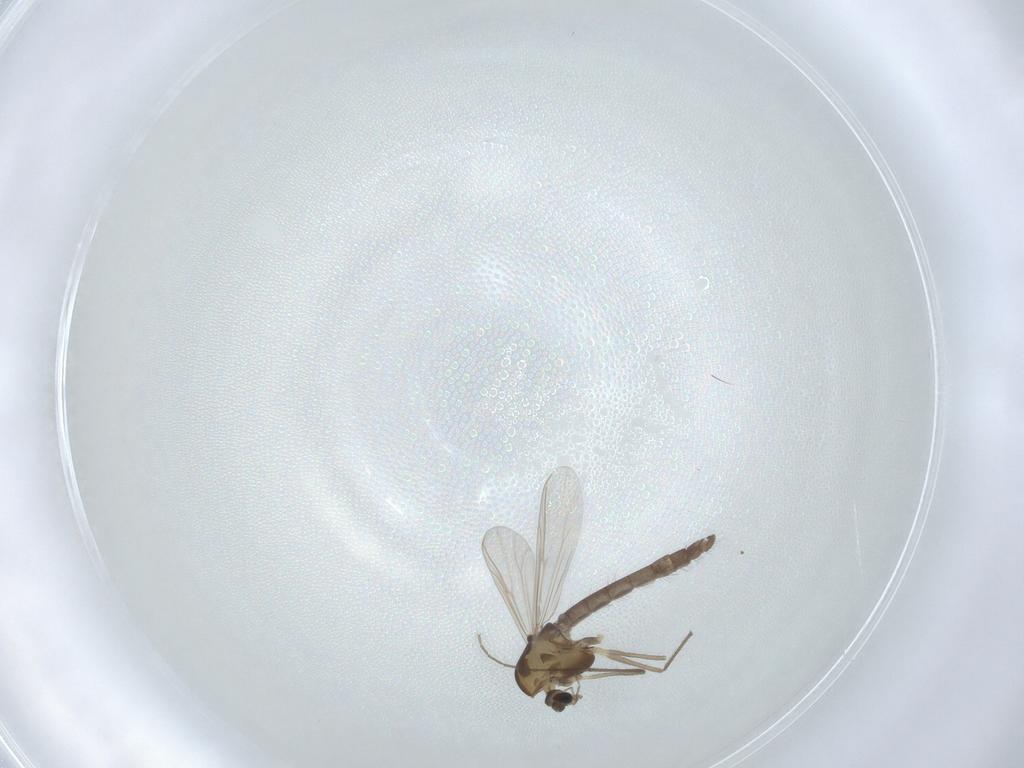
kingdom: Animalia
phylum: Arthropoda
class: Insecta
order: Diptera
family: Chironomidae
